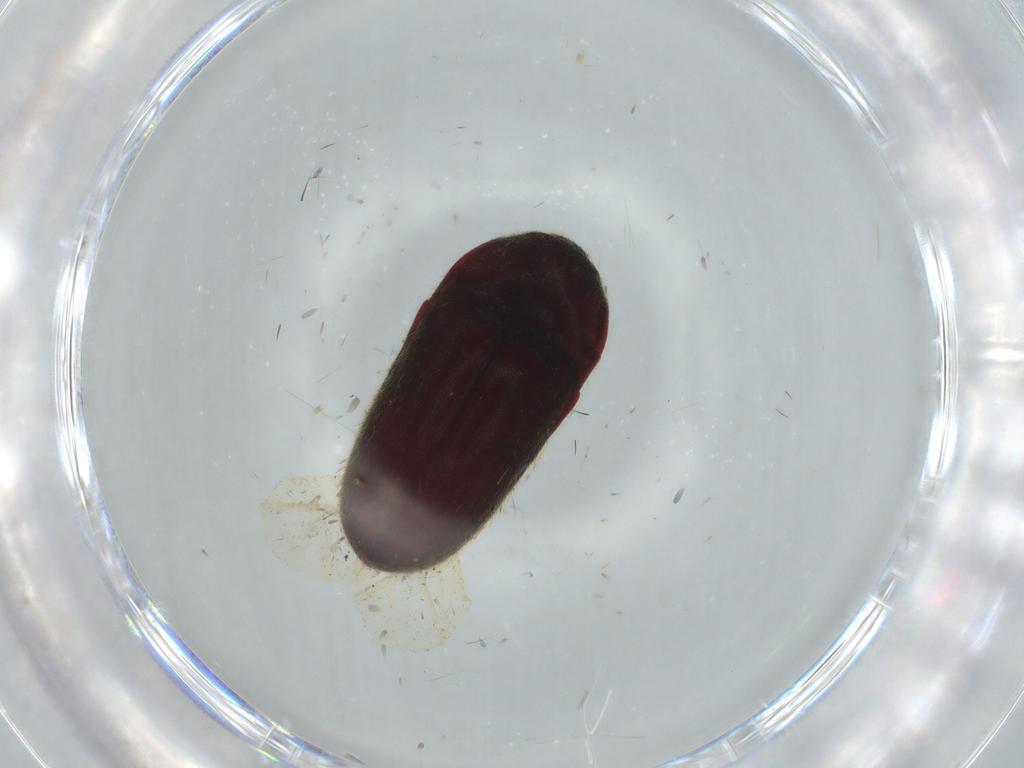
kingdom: Animalia
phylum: Arthropoda
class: Insecta
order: Coleoptera
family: Throscidae
